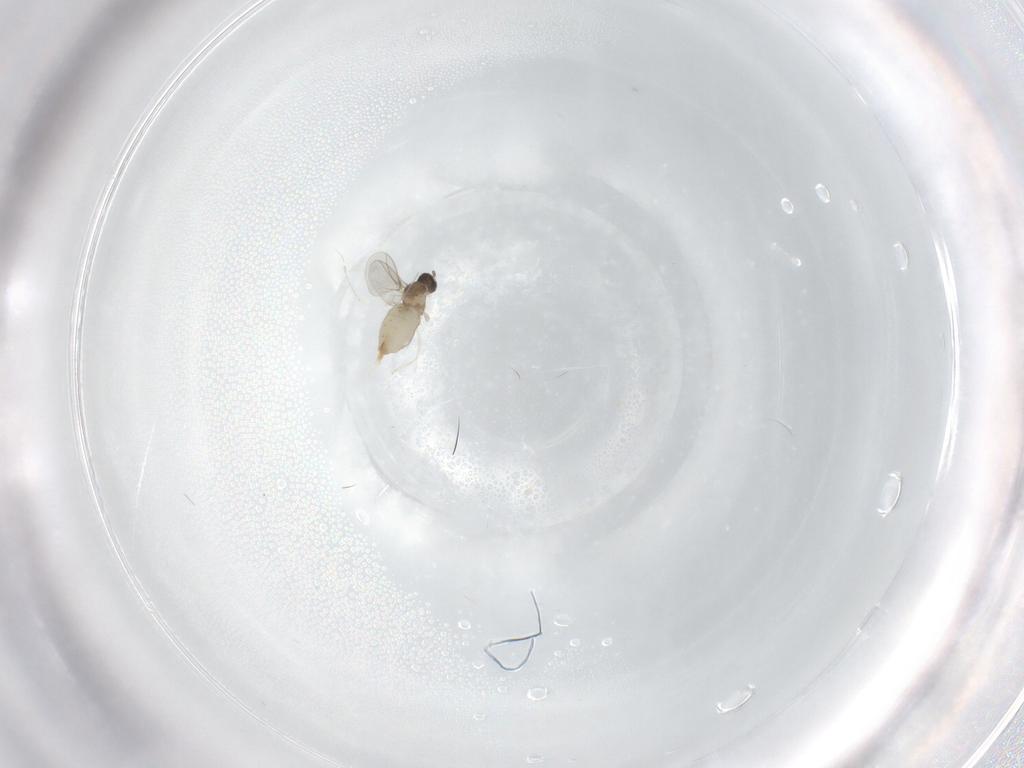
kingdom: Animalia
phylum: Arthropoda
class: Insecta
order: Diptera
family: Cecidomyiidae
